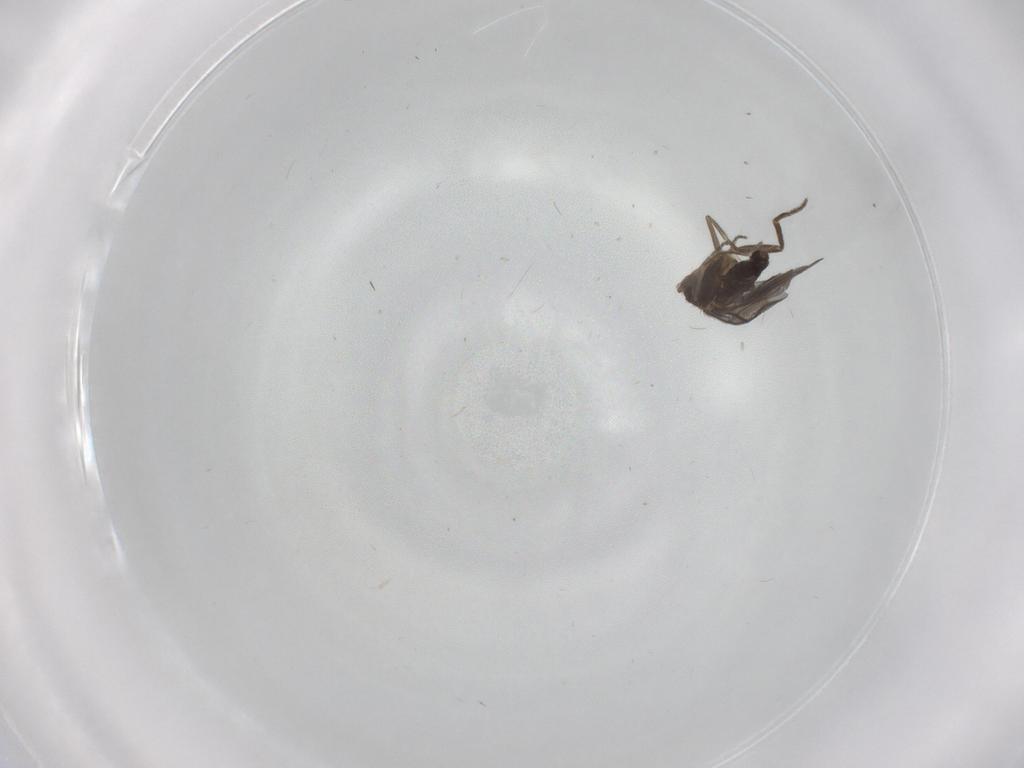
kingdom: Animalia
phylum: Arthropoda
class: Insecta
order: Diptera
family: Phoridae
